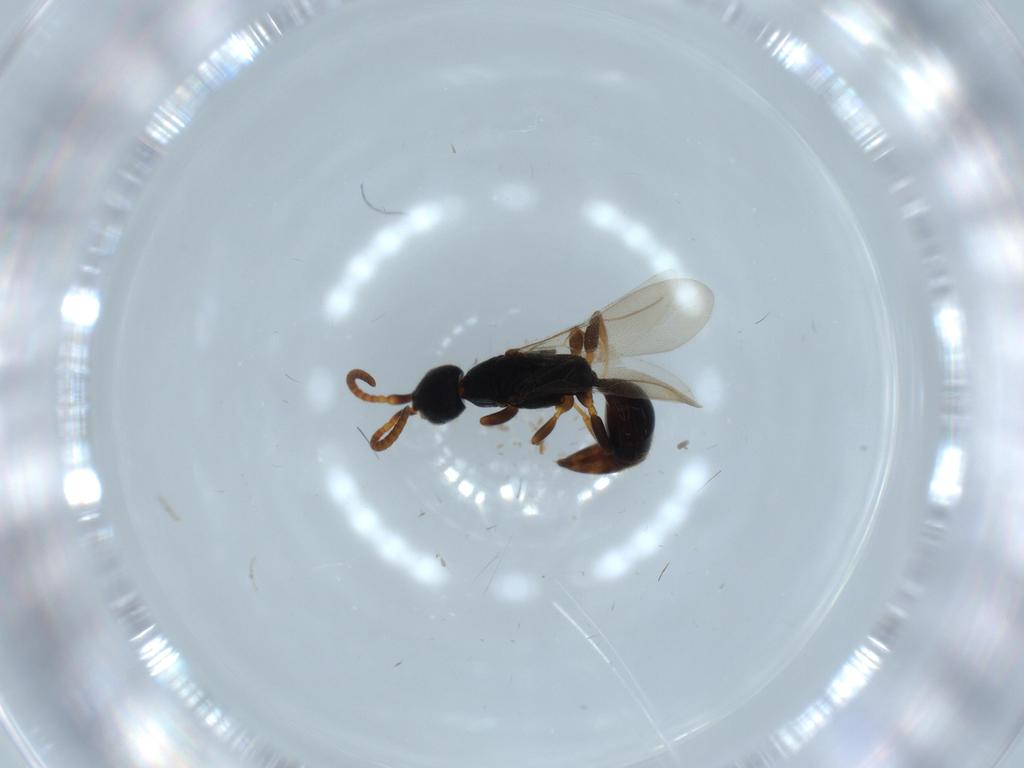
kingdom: Animalia
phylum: Arthropoda
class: Insecta
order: Hymenoptera
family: Bethylidae
